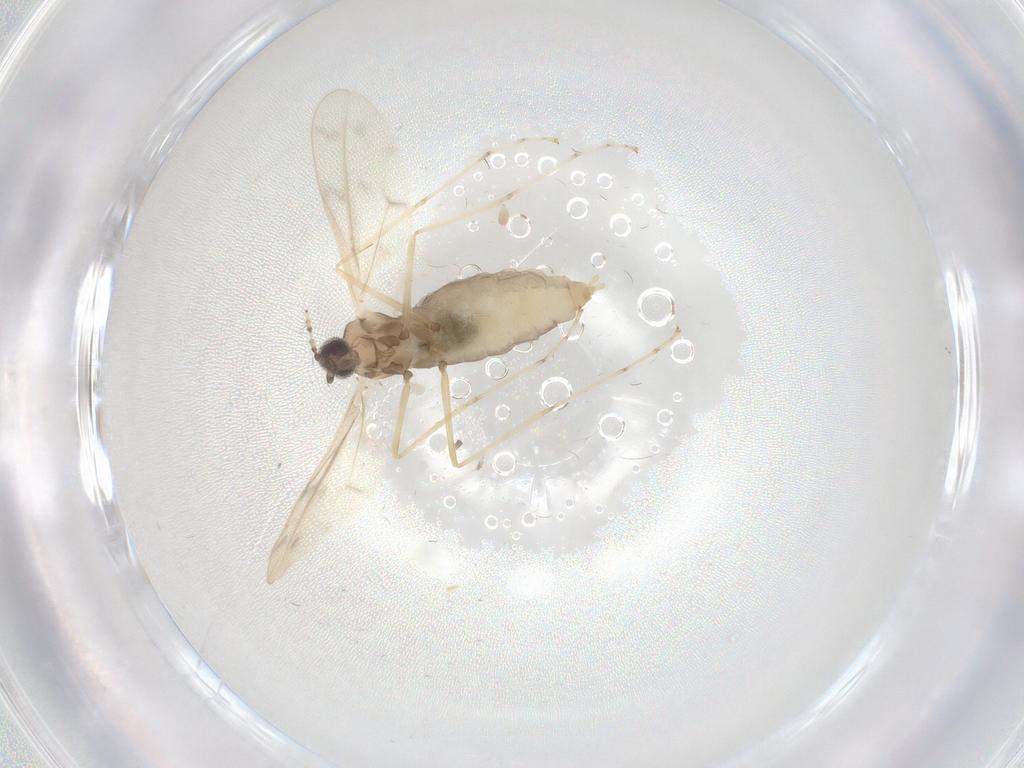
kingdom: Animalia
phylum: Arthropoda
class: Insecta
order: Diptera
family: Cecidomyiidae
